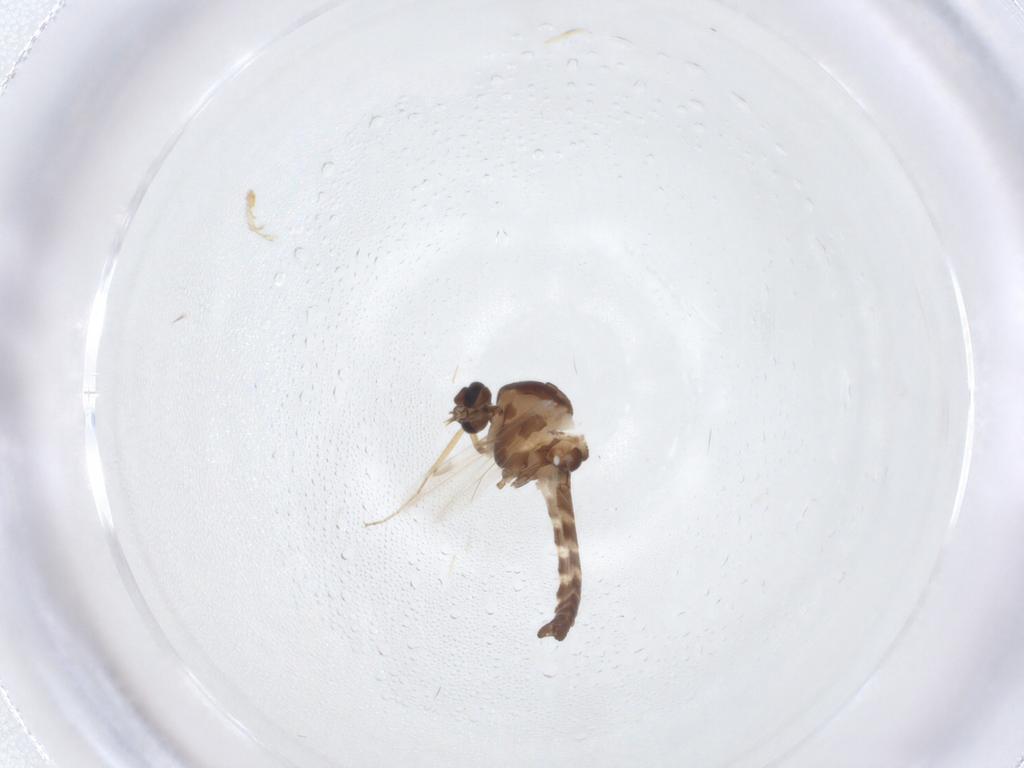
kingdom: Animalia
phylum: Arthropoda
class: Insecta
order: Diptera
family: Ceratopogonidae
